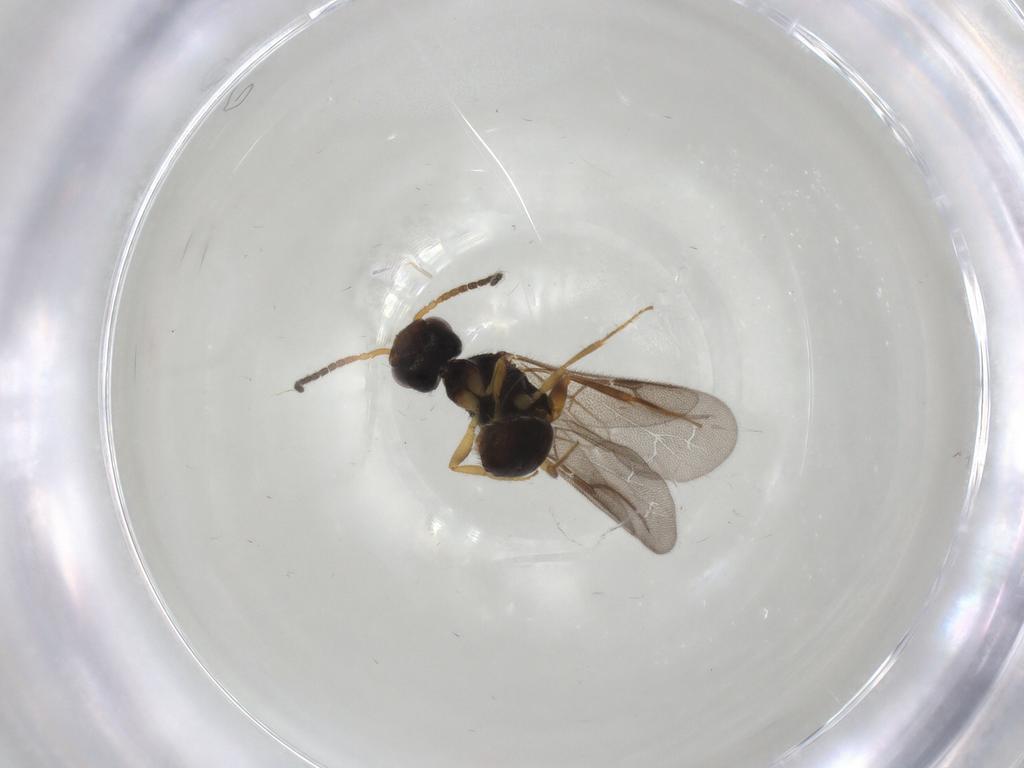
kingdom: Animalia
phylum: Arthropoda
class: Insecta
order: Hymenoptera
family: Bethylidae
